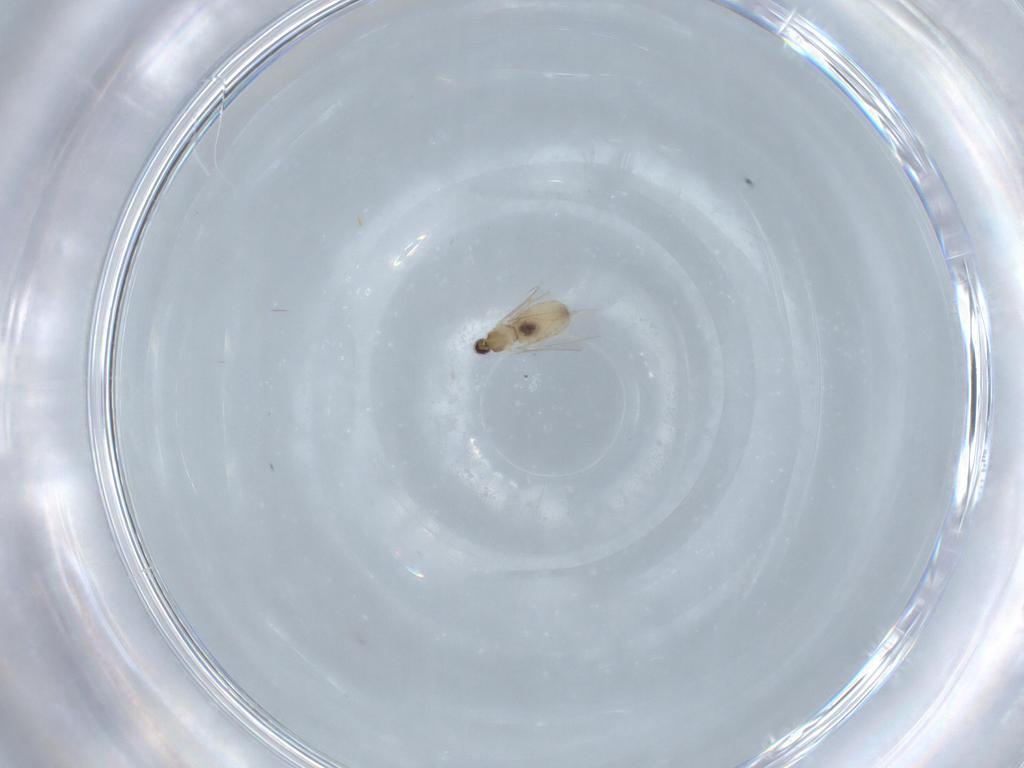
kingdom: Animalia
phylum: Arthropoda
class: Insecta
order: Diptera
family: Cecidomyiidae
